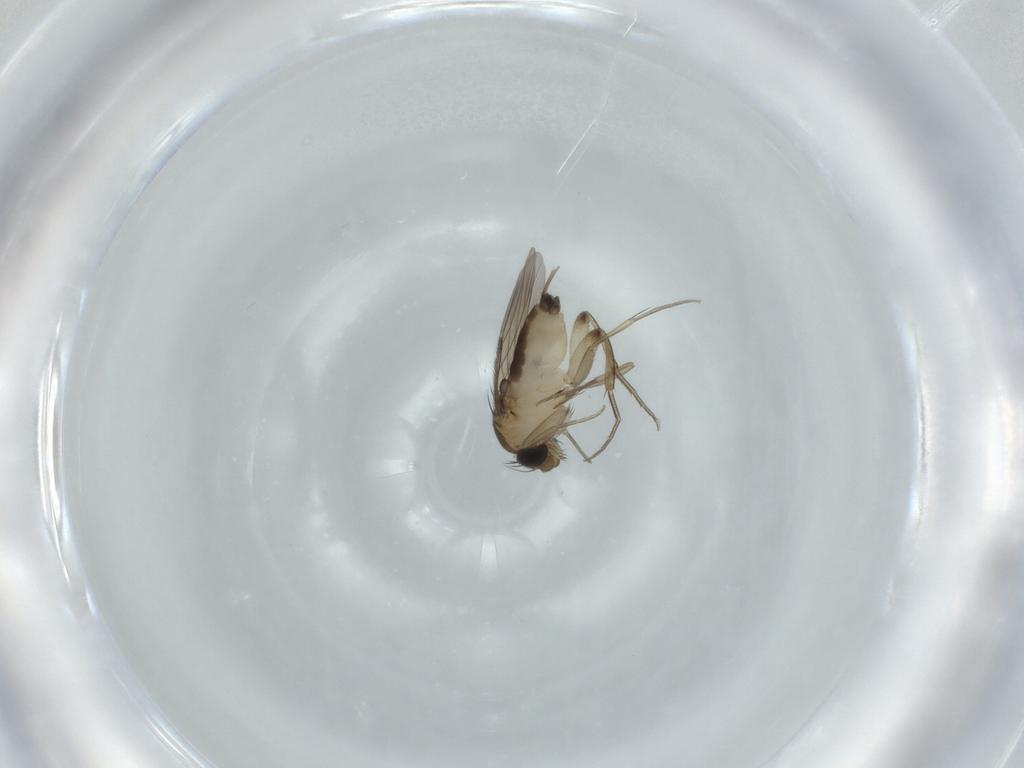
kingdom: Animalia
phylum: Arthropoda
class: Insecta
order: Diptera
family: Phoridae
